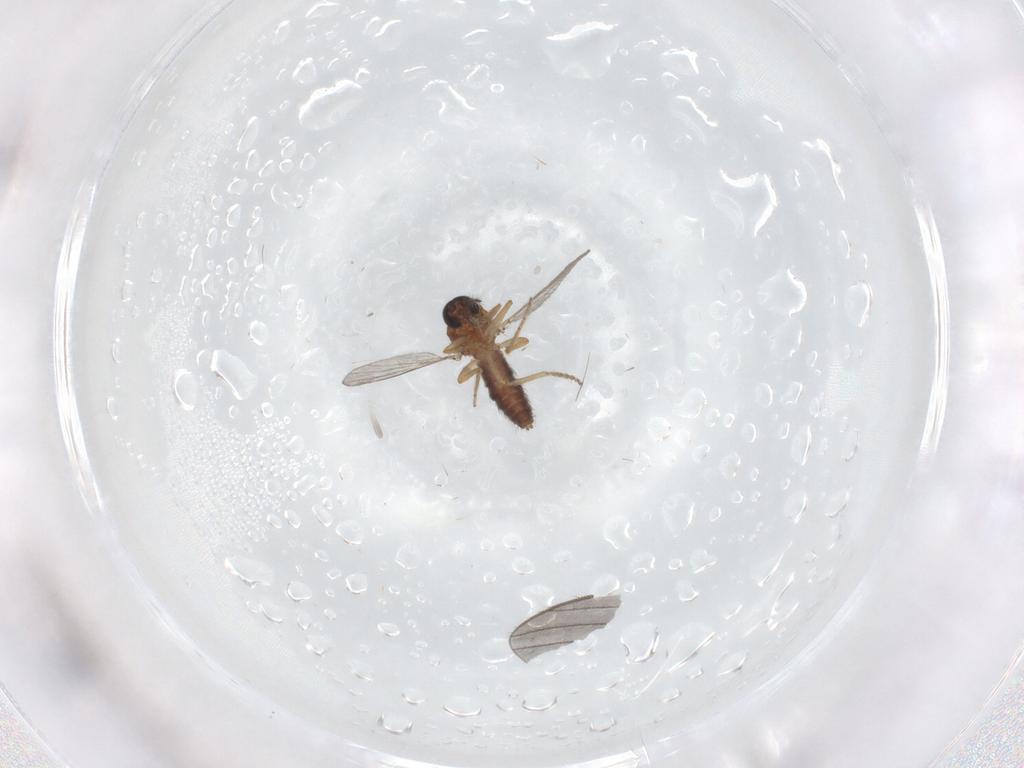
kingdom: Animalia
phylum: Arthropoda
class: Insecta
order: Diptera
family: Ceratopogonidae
